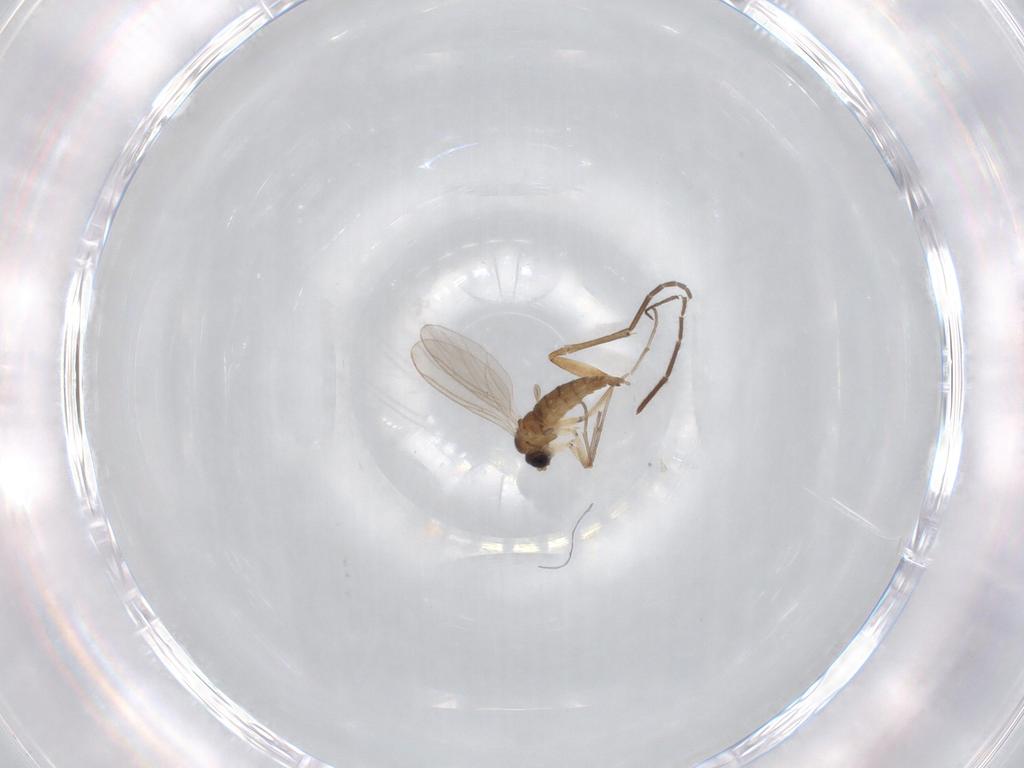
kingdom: Animalia
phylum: Arthropoda
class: Insecta
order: Diptera
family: Sciaridae
